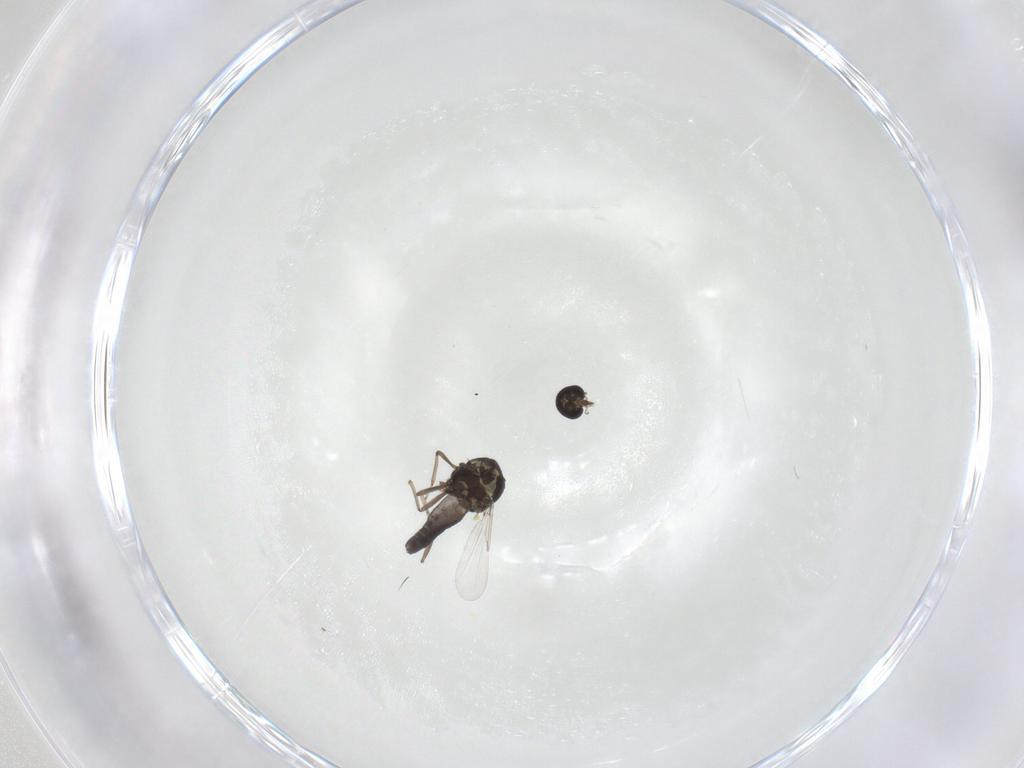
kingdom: Animalia
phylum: Arthropoda
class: Insecta
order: Diptera
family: Ceratopogonidae
